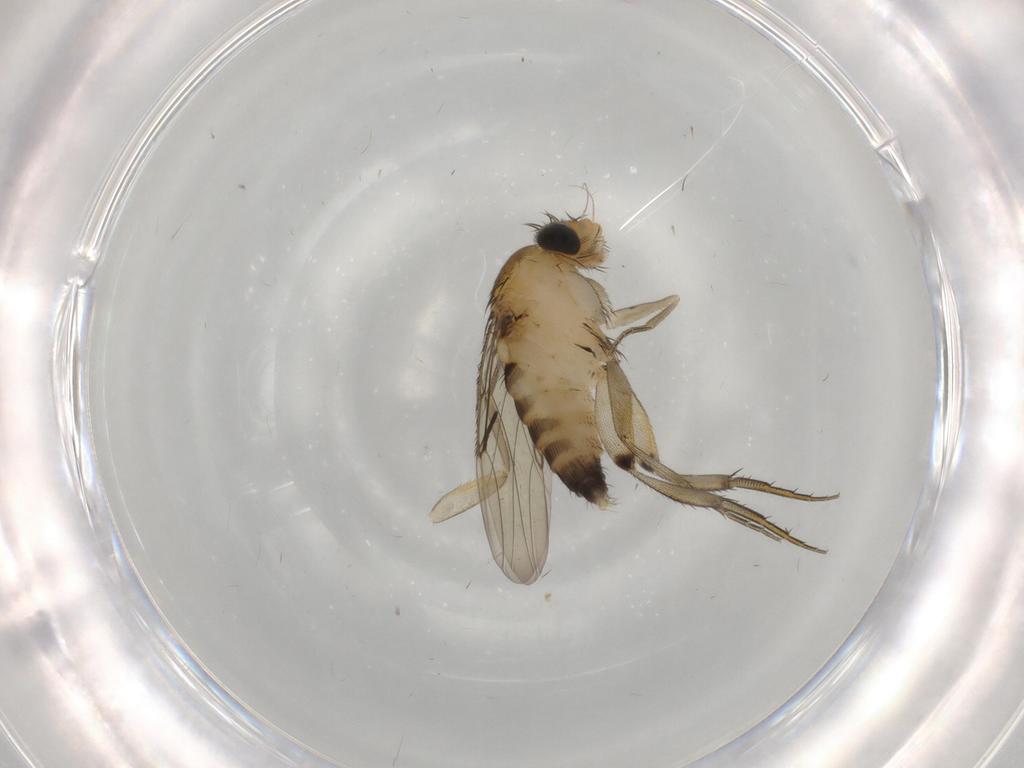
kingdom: Animalia
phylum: Arthropoda
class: Insecta
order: Diptera
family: Phoridae
